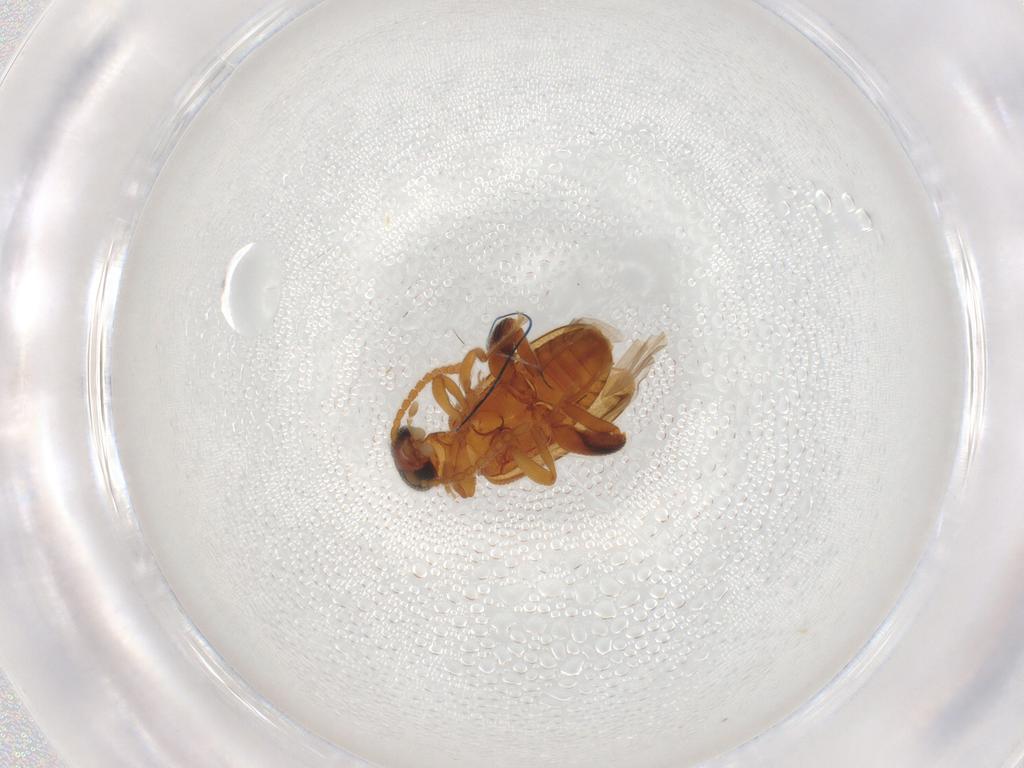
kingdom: Animalia
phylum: Arthropoda
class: Insecta
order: Coleoptera
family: Aderidae
